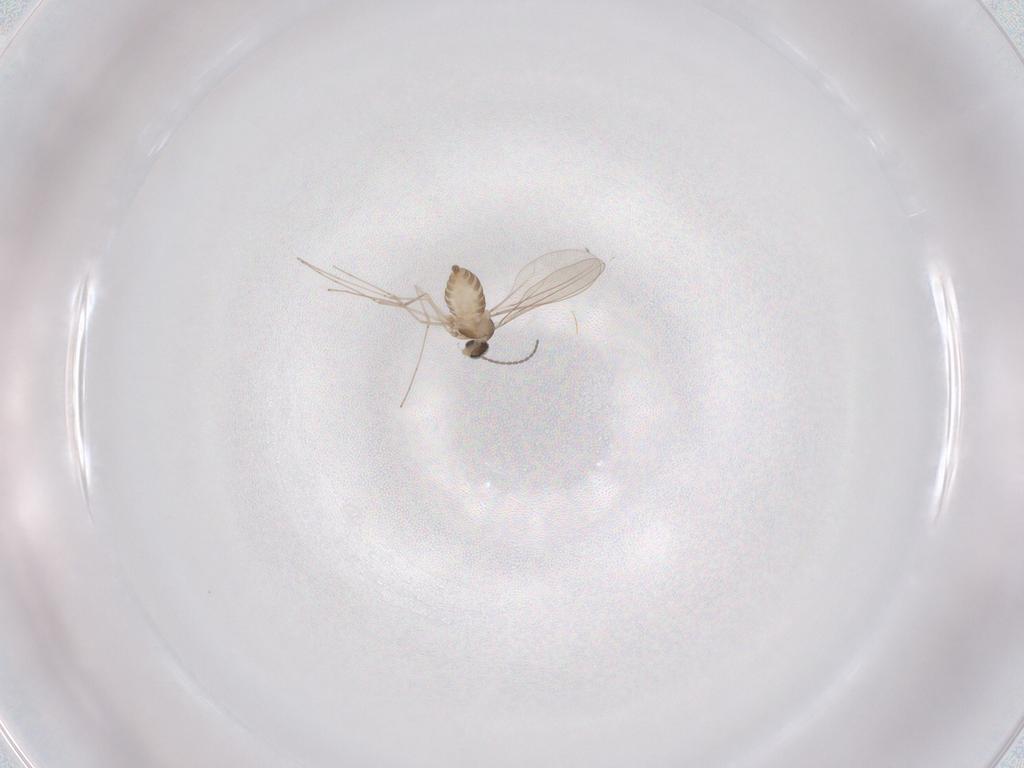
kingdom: Animalia
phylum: Arthropoda
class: Insecta
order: Diptera
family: Cecidomyiidae
